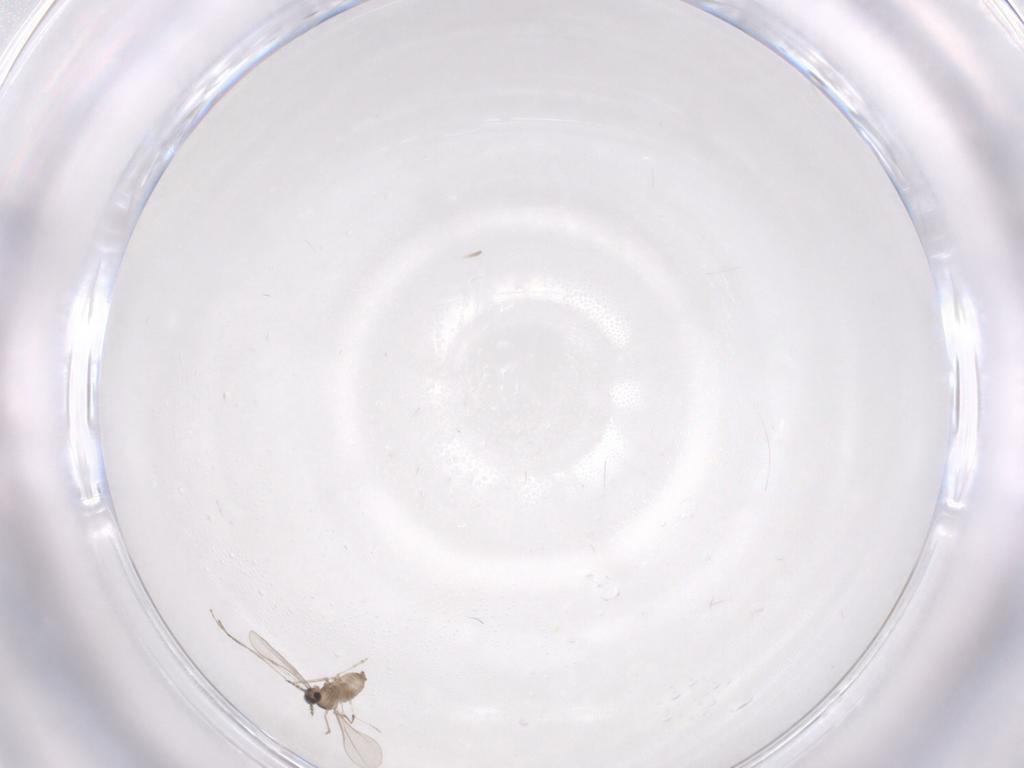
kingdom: Animalia
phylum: Arthropoda
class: Insecta
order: Diptera
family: Cecidomyiidae
